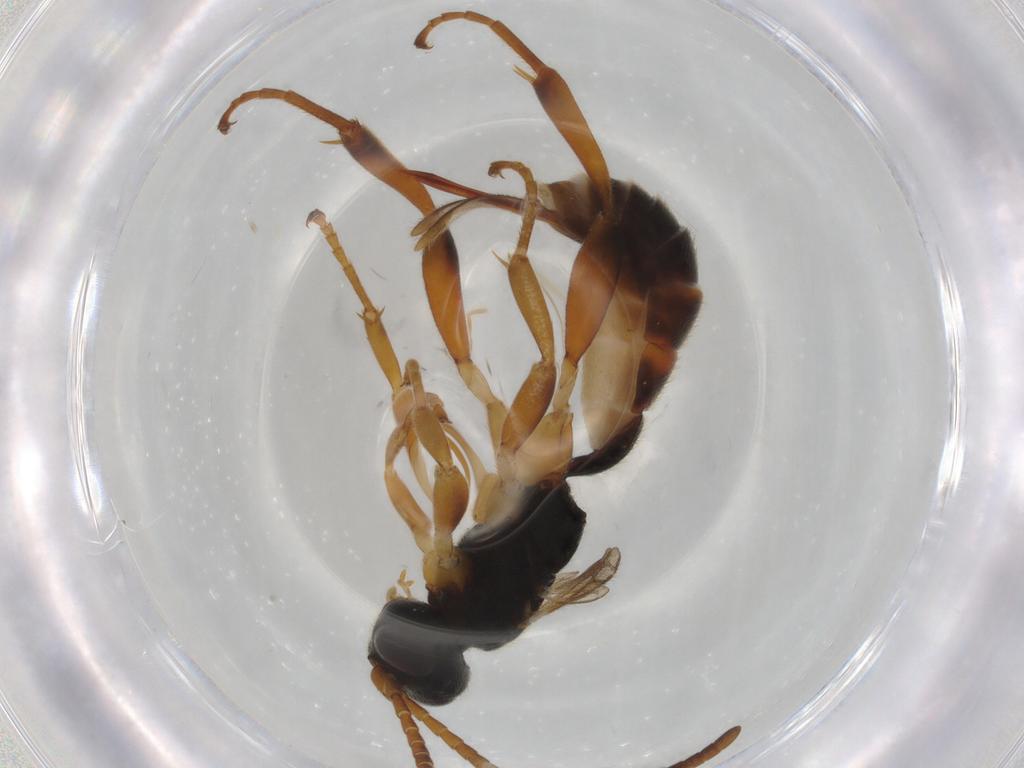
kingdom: Animalia
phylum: Arthropoda
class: Insecta
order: Hymenoptera
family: Ichneumonidae
